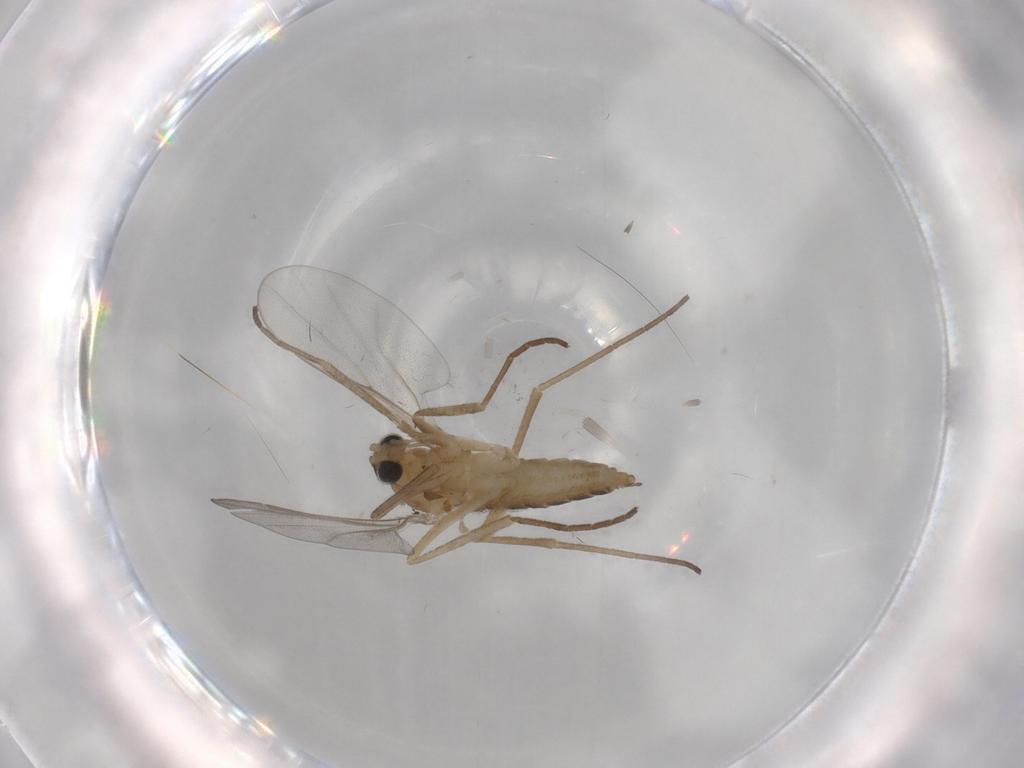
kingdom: Animalia
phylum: Arthropoda
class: Insecta
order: Diptera
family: Cecidomyiidae
